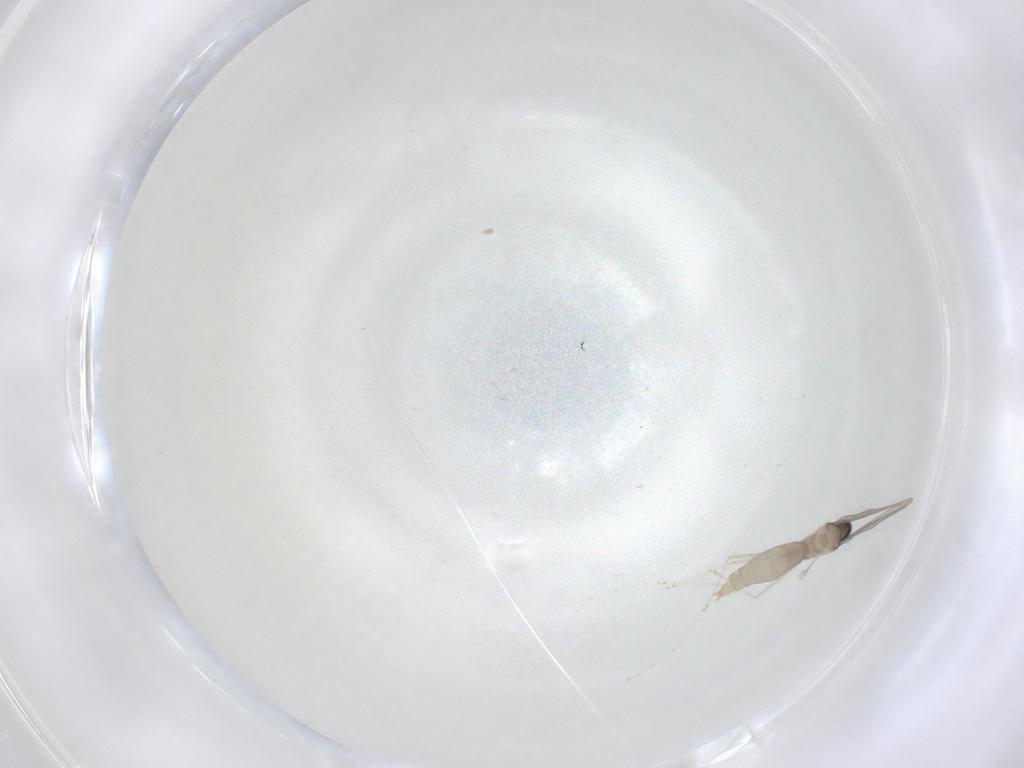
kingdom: Animalia
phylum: Arthropoda
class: Insecta
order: Diptera
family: Cecidomyiidae
